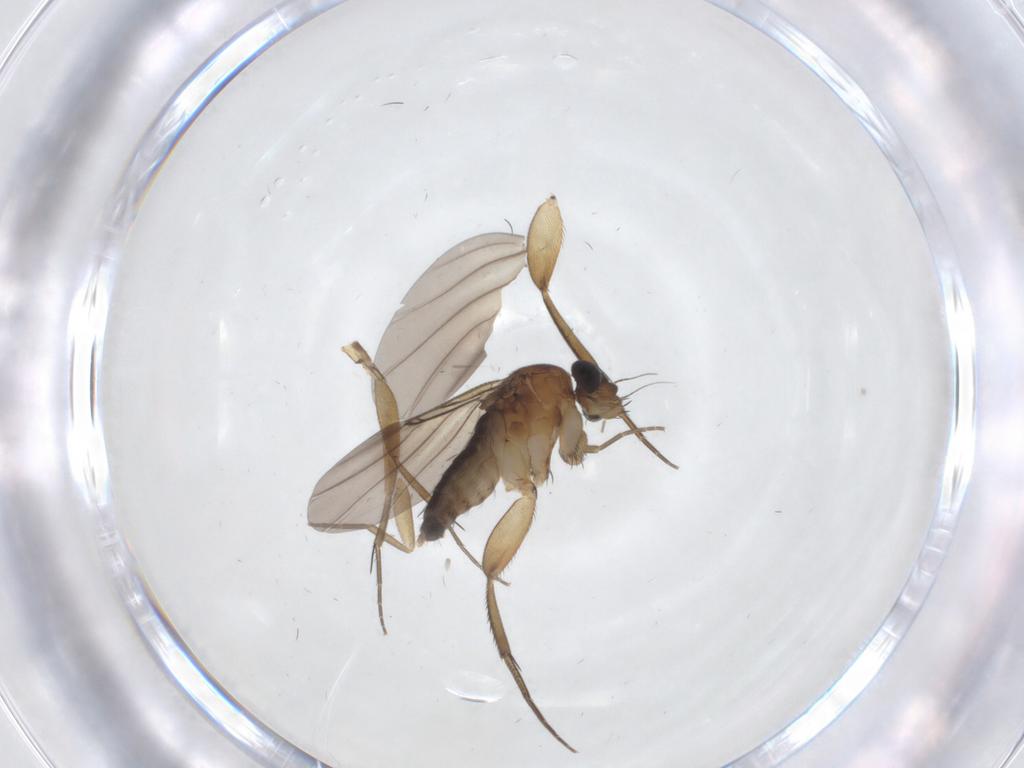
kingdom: Animalia
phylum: Arthropoda
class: Insecta
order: Diptera
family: Phoridae
